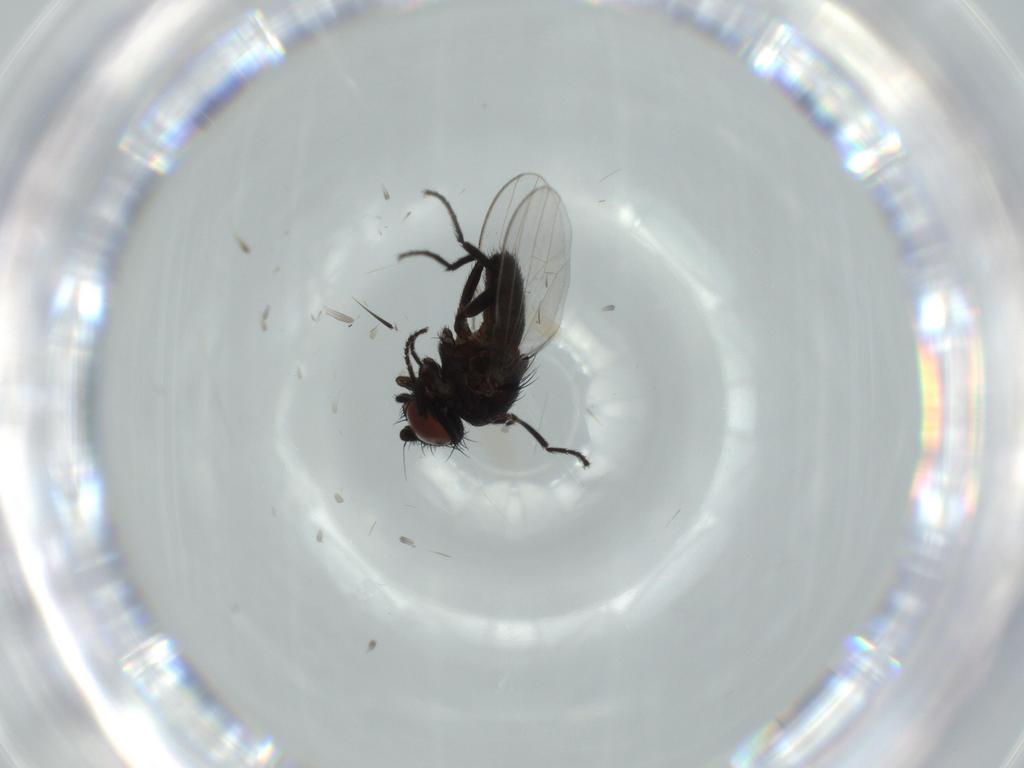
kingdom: Animalia
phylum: Arthropoda
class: Insecta
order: Diptera
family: Milichiidae
